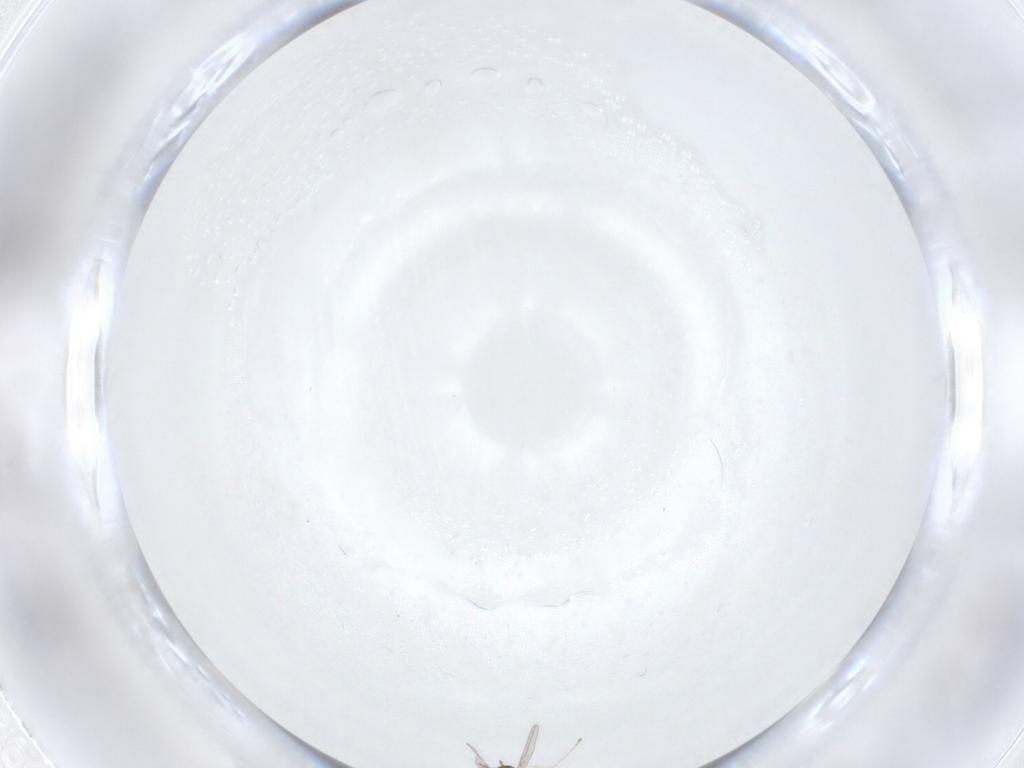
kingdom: Animalia
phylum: Arthropoda
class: Insecta
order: Diptera
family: Cecidomyiidae
